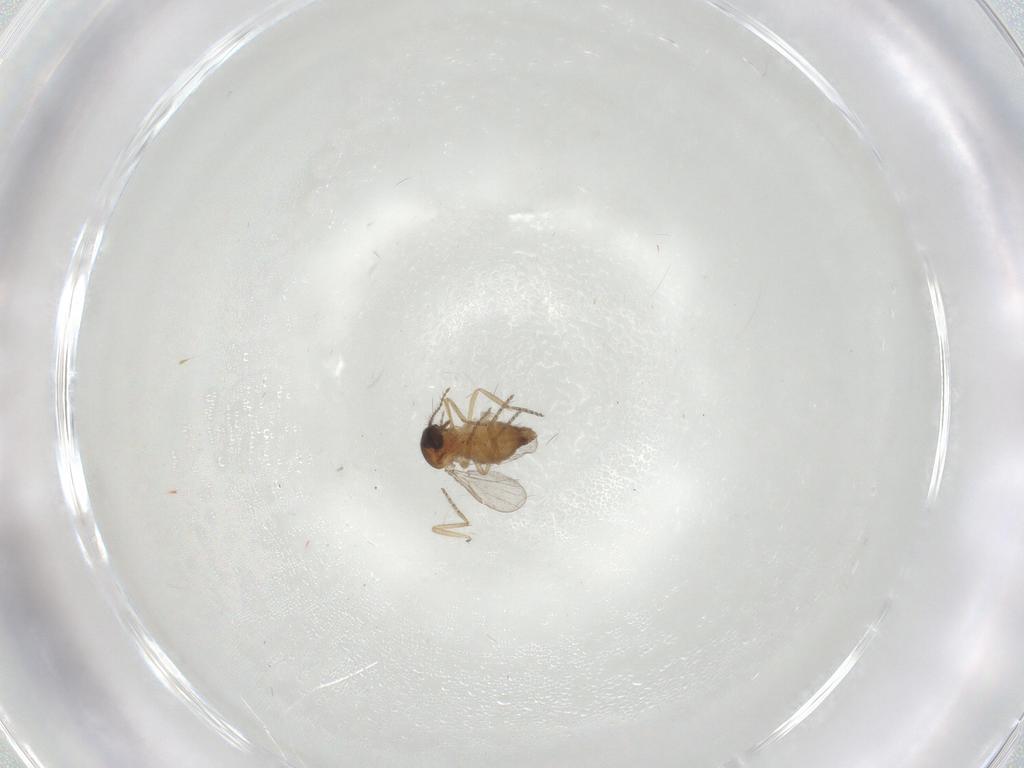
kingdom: Animalia
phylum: Arthropoda
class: Insecta
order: Diptera
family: Ceratopogonidae
